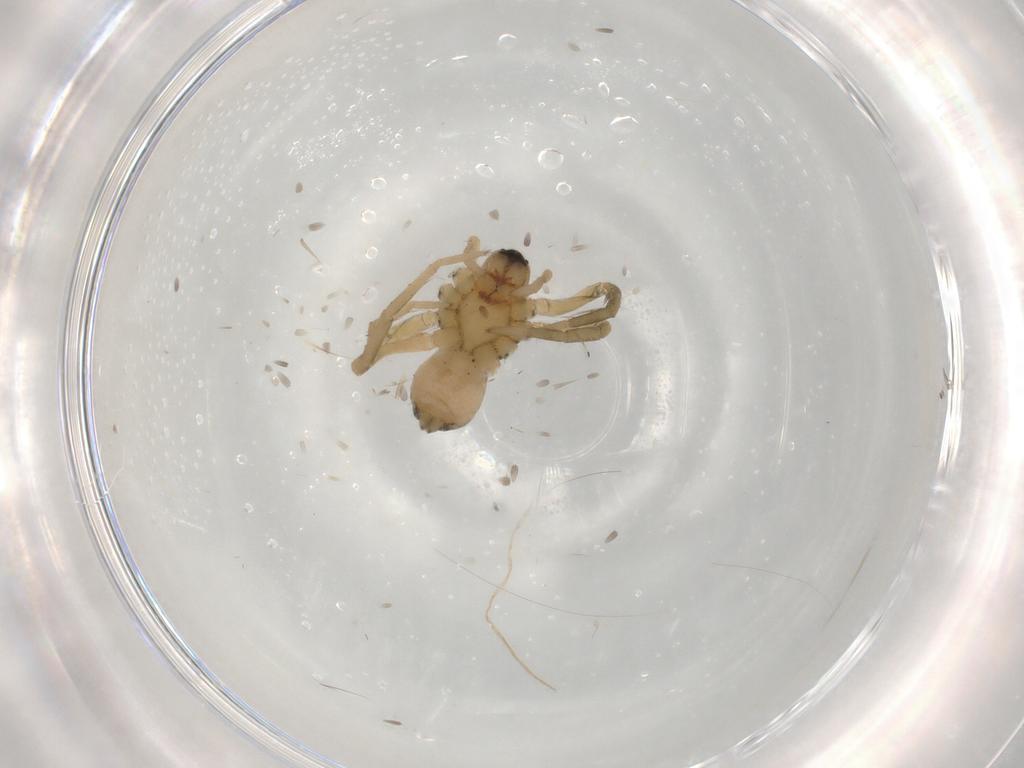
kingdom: Animalia
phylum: Arthropoda
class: Arachnida
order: Araneae
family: Lycosidae
